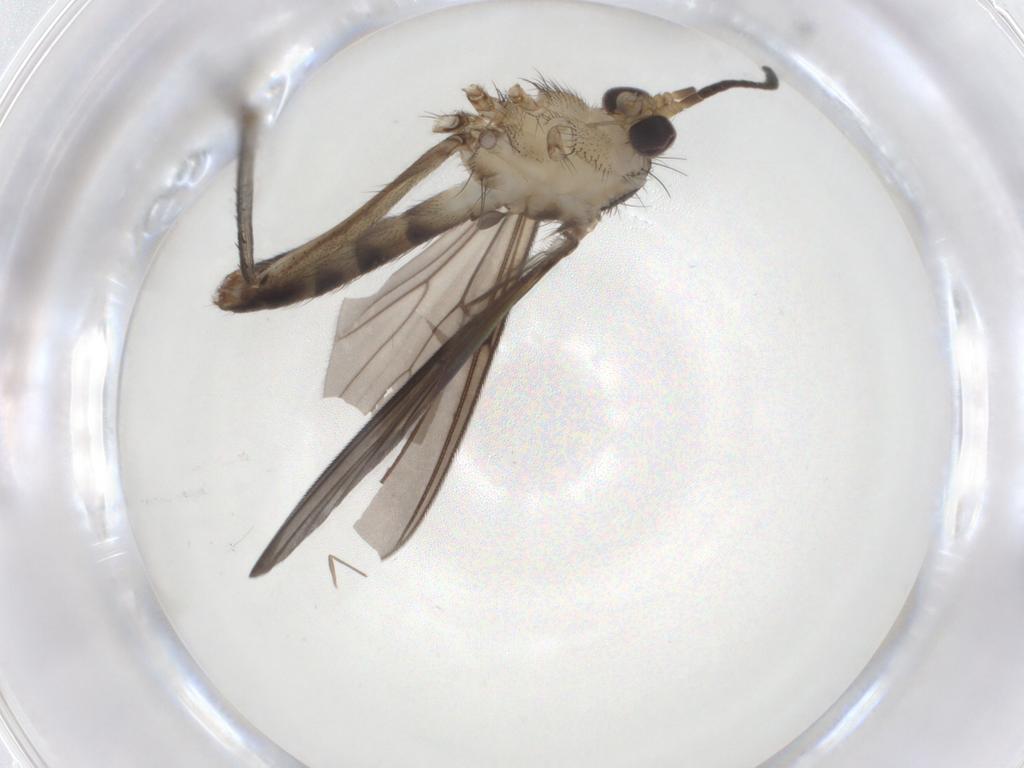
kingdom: Animalia
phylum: Arthropoda
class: Insecta
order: Diptera
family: Mycetophilidae
